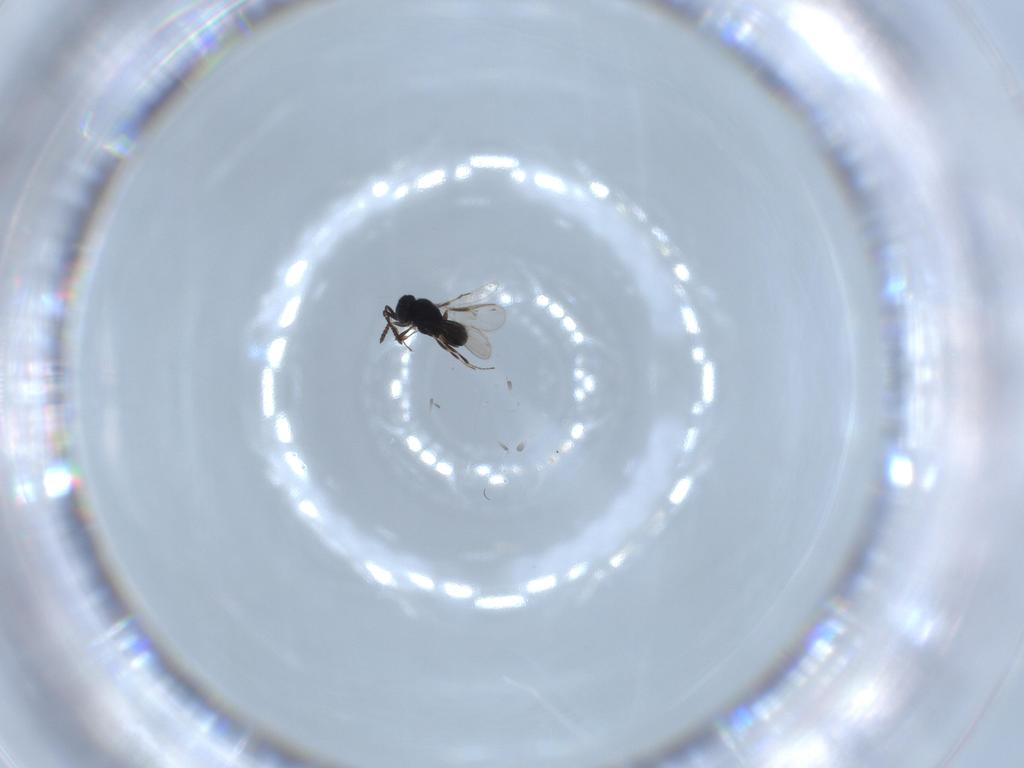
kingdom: Animalia
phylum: Arthropoda
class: Insecta
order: Hymenoptera
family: Scelionidae
